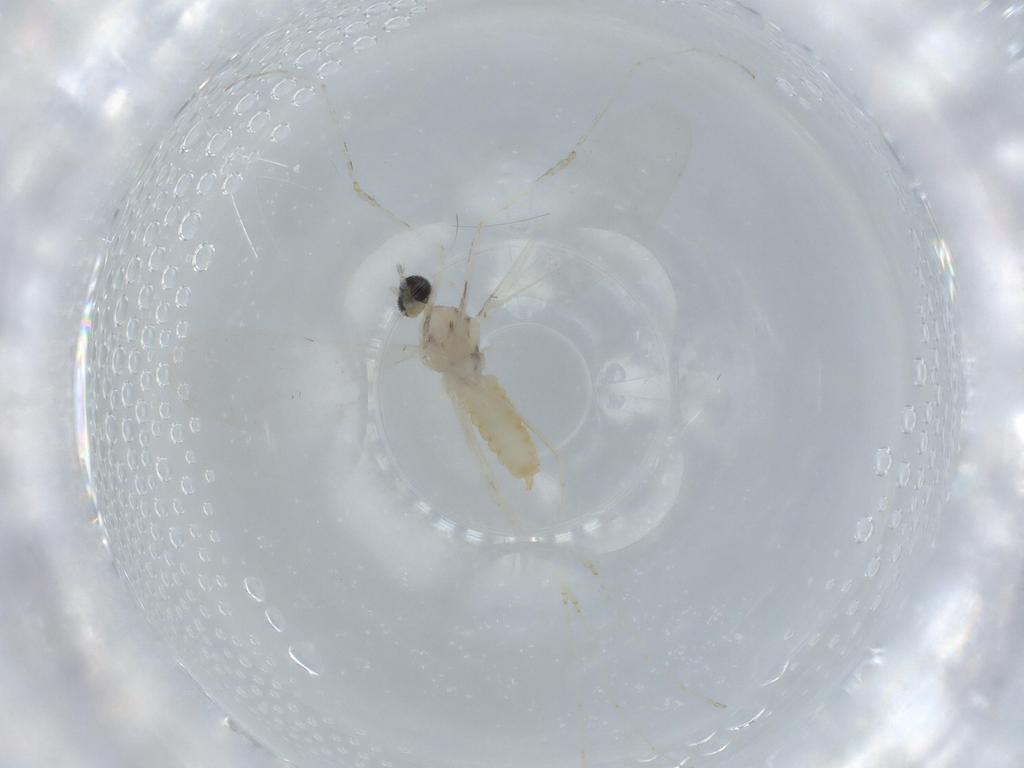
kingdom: Animalia
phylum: Arthropoda
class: Insecta
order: Diptera
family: Cecidomyiidae
